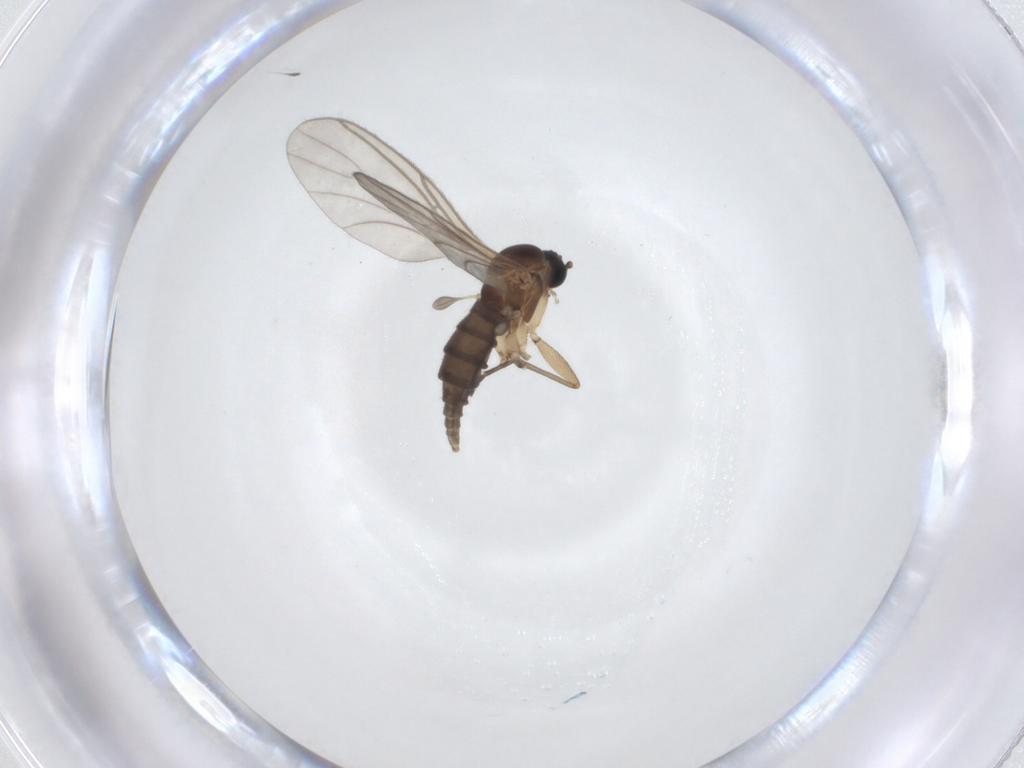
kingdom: Animalia
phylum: Arthropoda
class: Insecta
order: Diptera
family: Sciaridae
